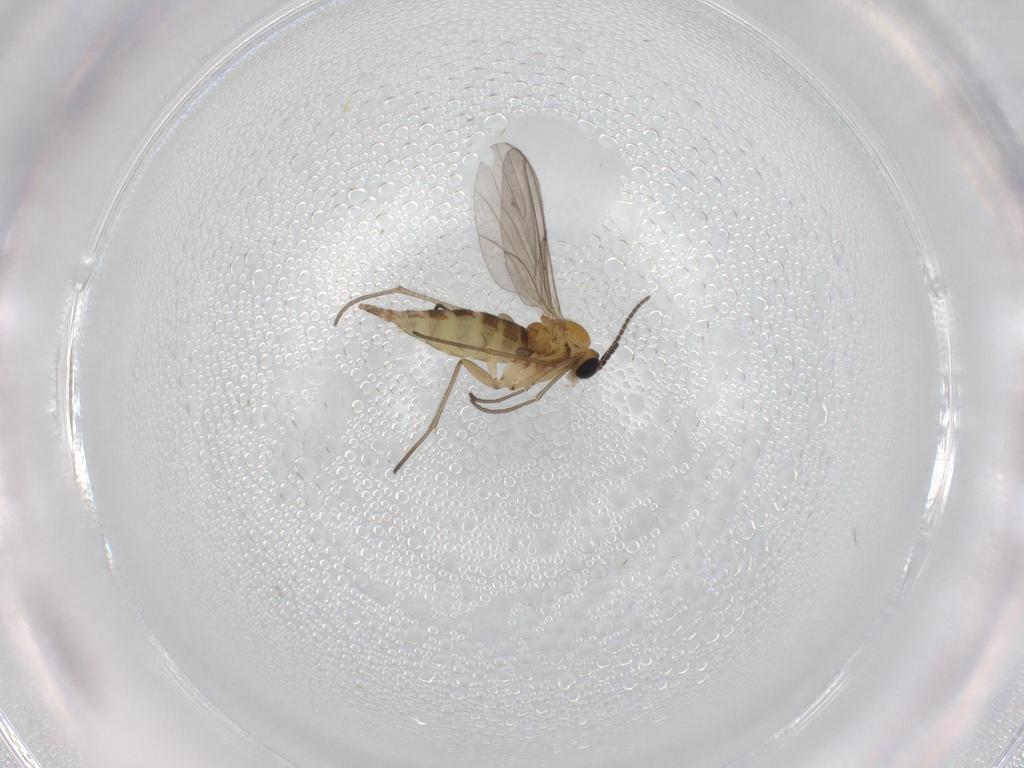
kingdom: Animalia
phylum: Arthropoda
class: Insecta
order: Diptera
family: Sciaridae
